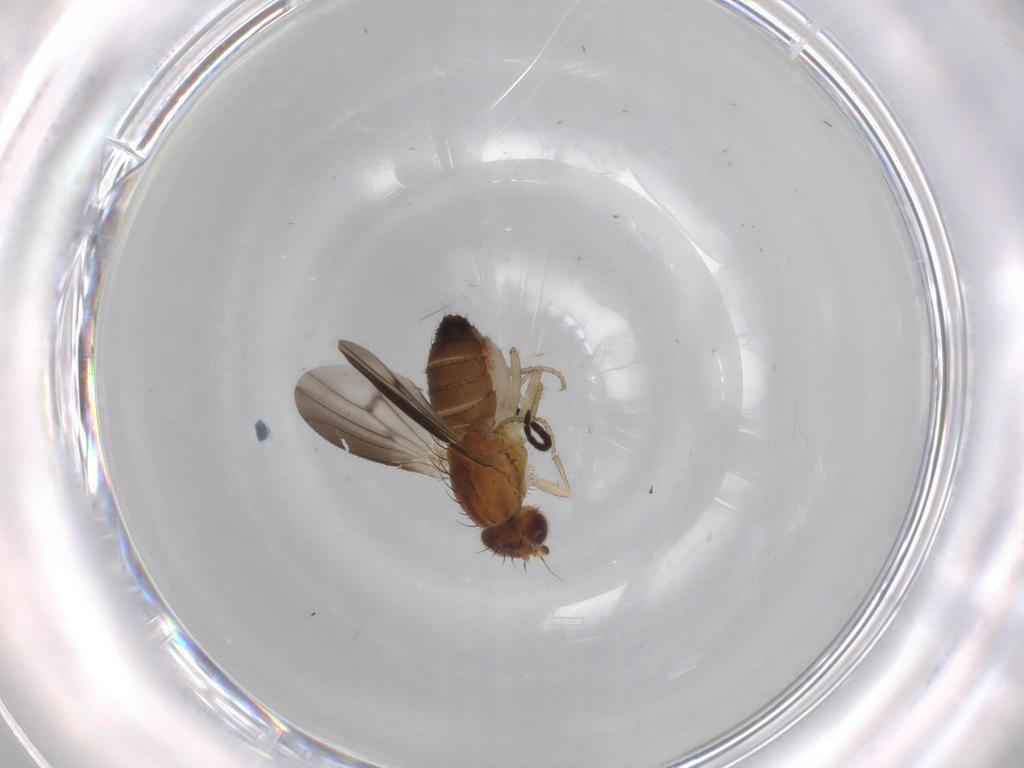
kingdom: Animalia
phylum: Arthropoda
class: Insecta
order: Diptera
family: Heleomyzidae
